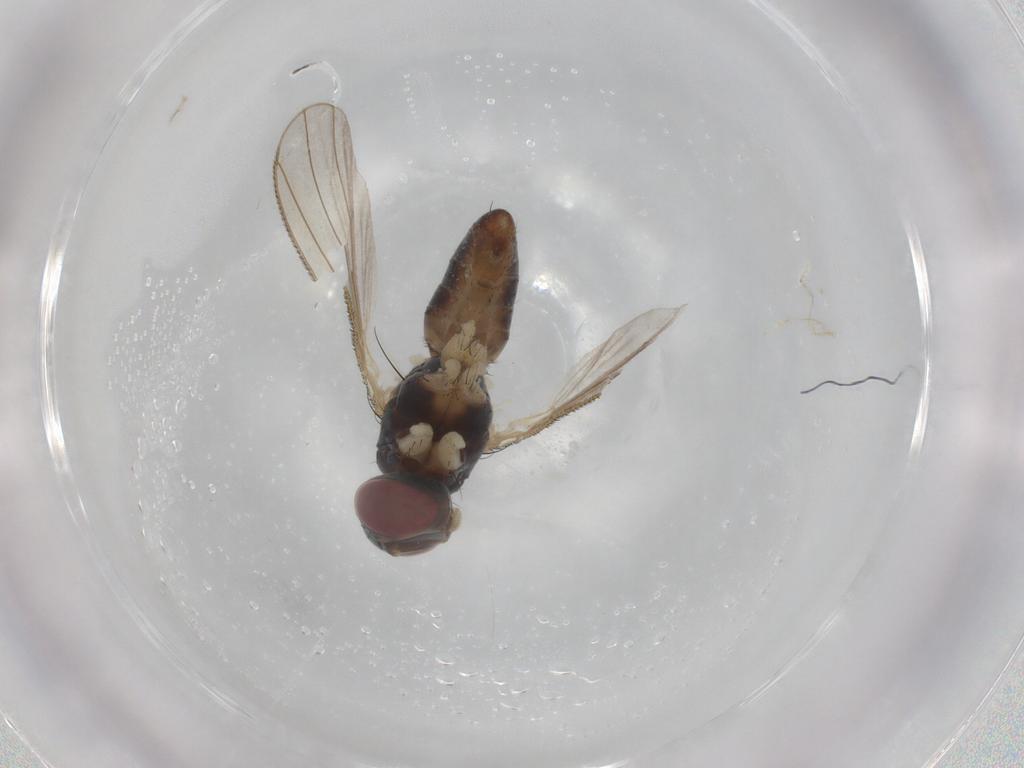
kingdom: Animalia
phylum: Arthropoda
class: Insecta
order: Diptera
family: Muscidae
